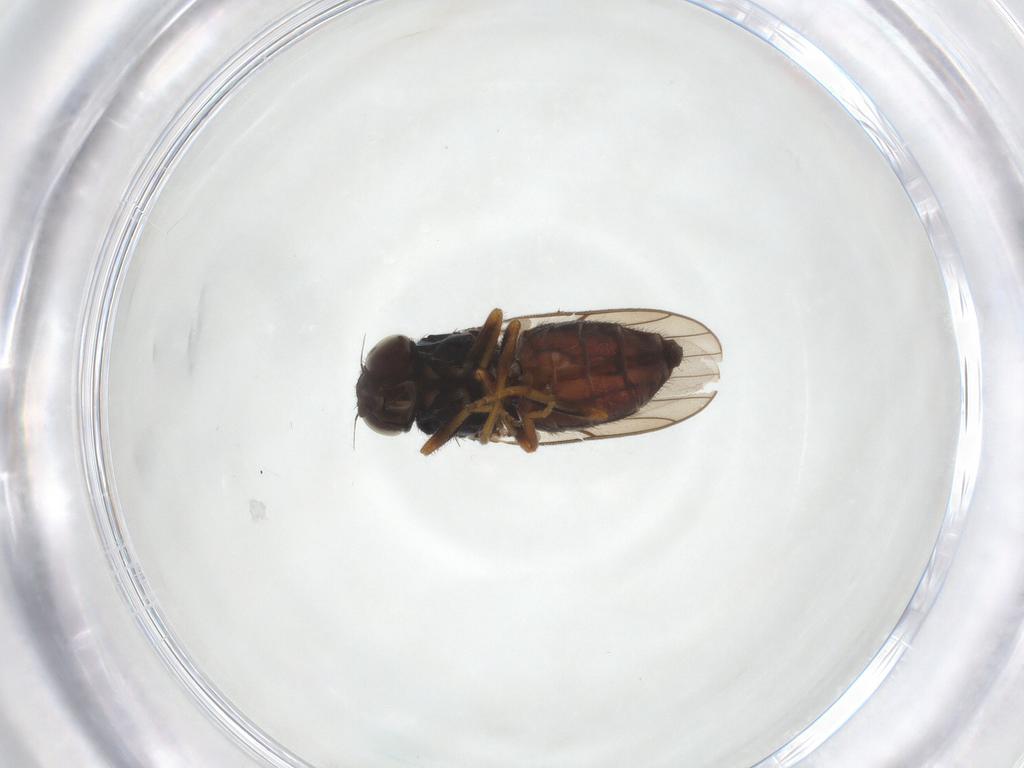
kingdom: Animalia
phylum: Arthropoda
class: Insecta
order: Diptera
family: Chloropidae
